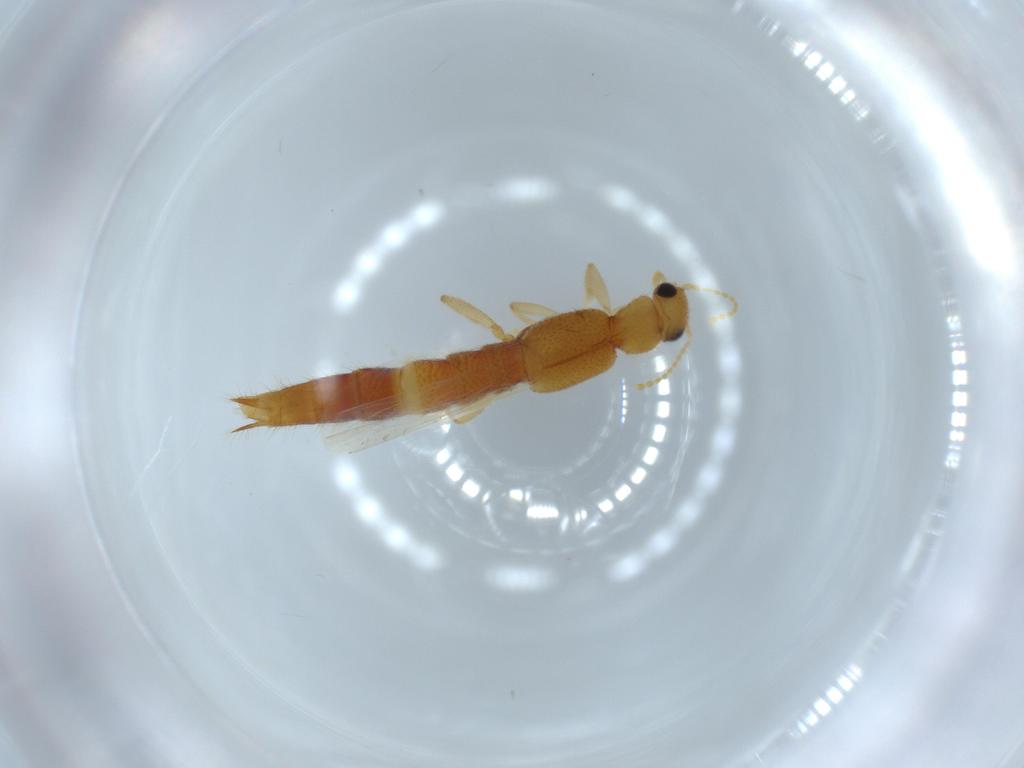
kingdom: Animalia
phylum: Arthropoda
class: Insecta
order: Coleoptera
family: Staphylinidae
